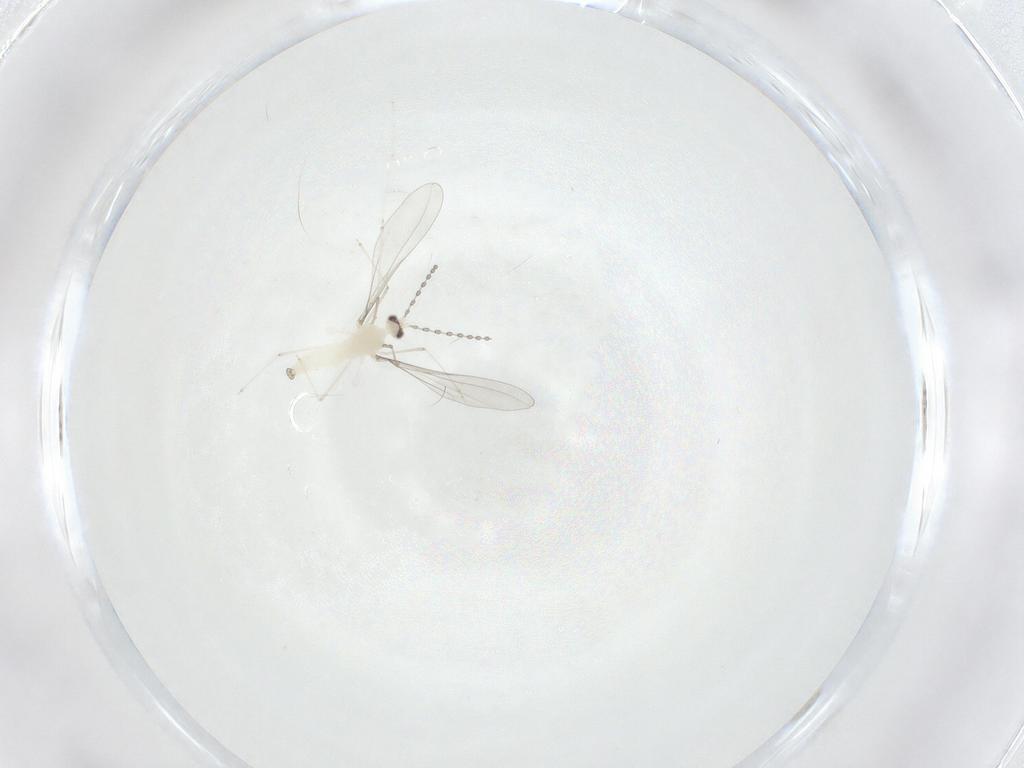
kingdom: Animalia
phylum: Arthropoda
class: Insecta
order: Diptera
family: Cecidomyiidae
